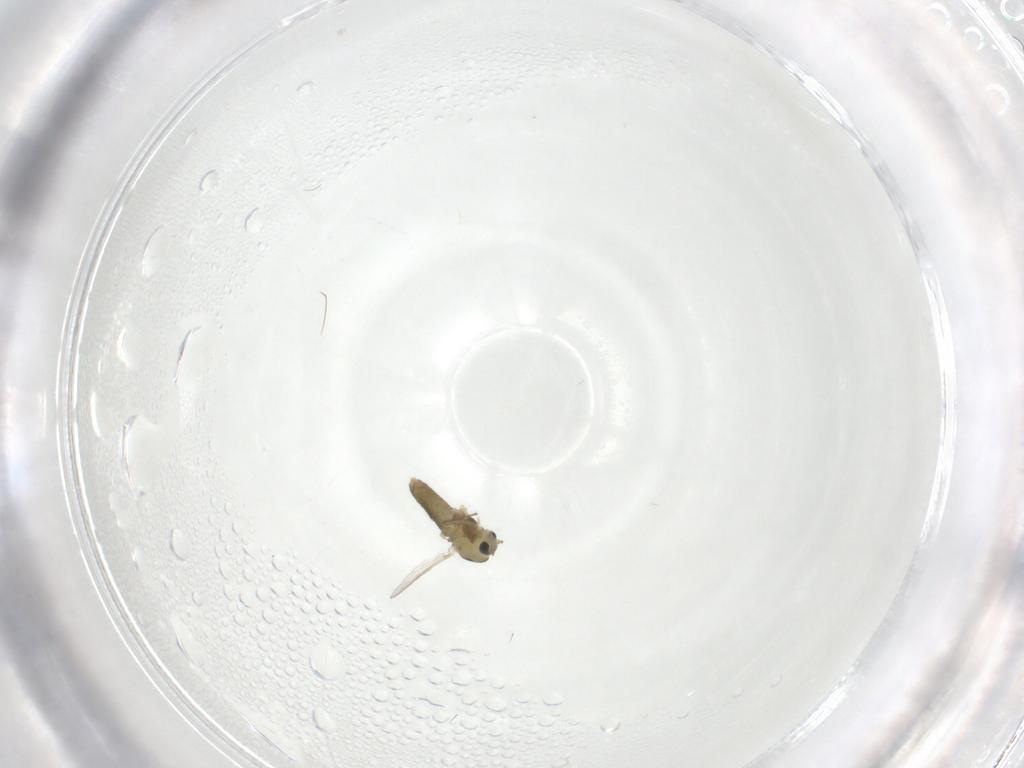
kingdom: Animalia
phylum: Arthropoda
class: Insecta
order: Diptera
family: Chironomidae
